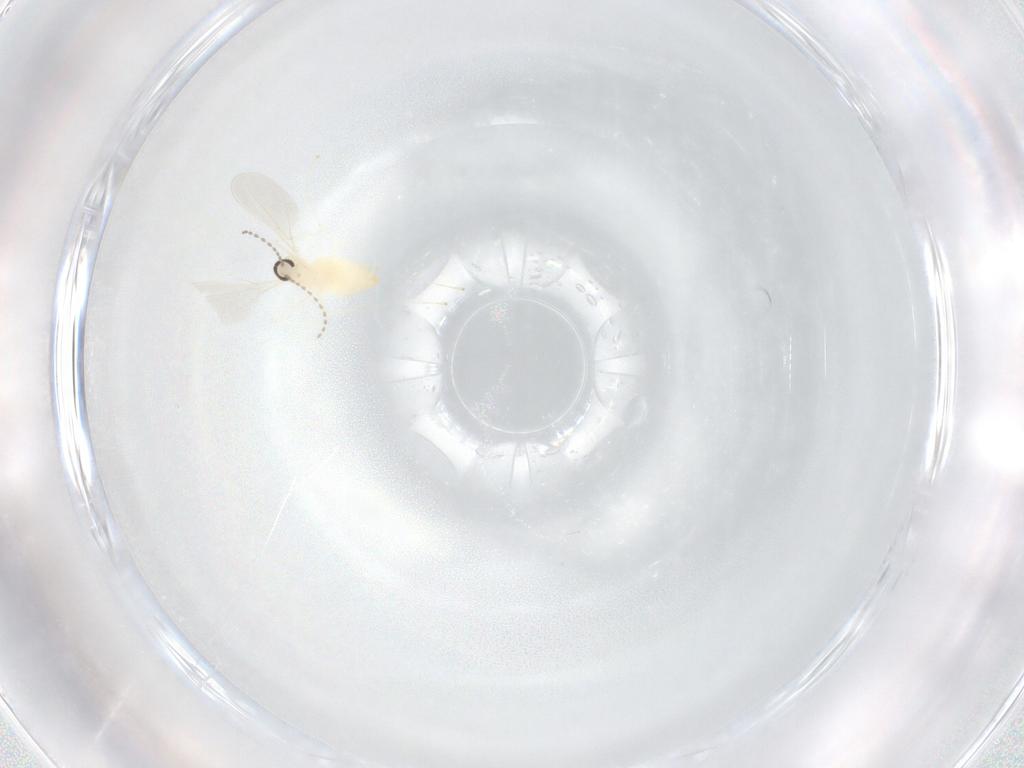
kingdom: Animalia
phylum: Arthropoda
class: Insecta
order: Diptera
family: Cecidomyiidae
